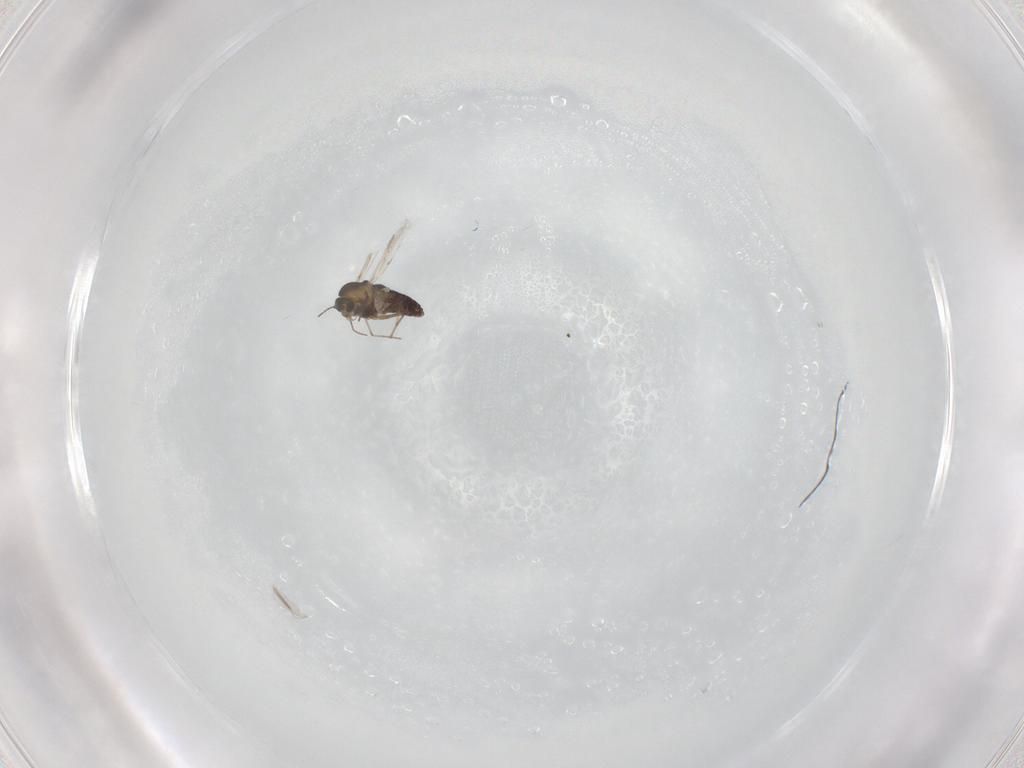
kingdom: Animalia
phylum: Arthropoda
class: Insecta
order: Diptera
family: Chironomidae
